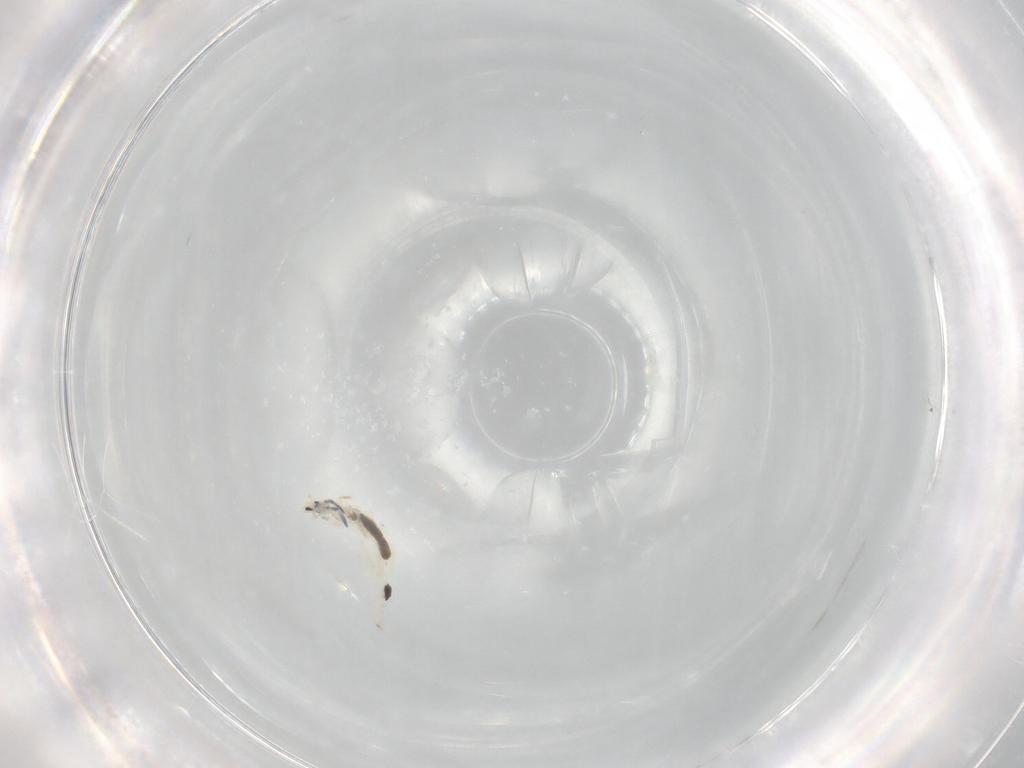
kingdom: Animalia
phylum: Arthropoda
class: Collembola
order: Entomobryomorpha
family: Entomobryidae
